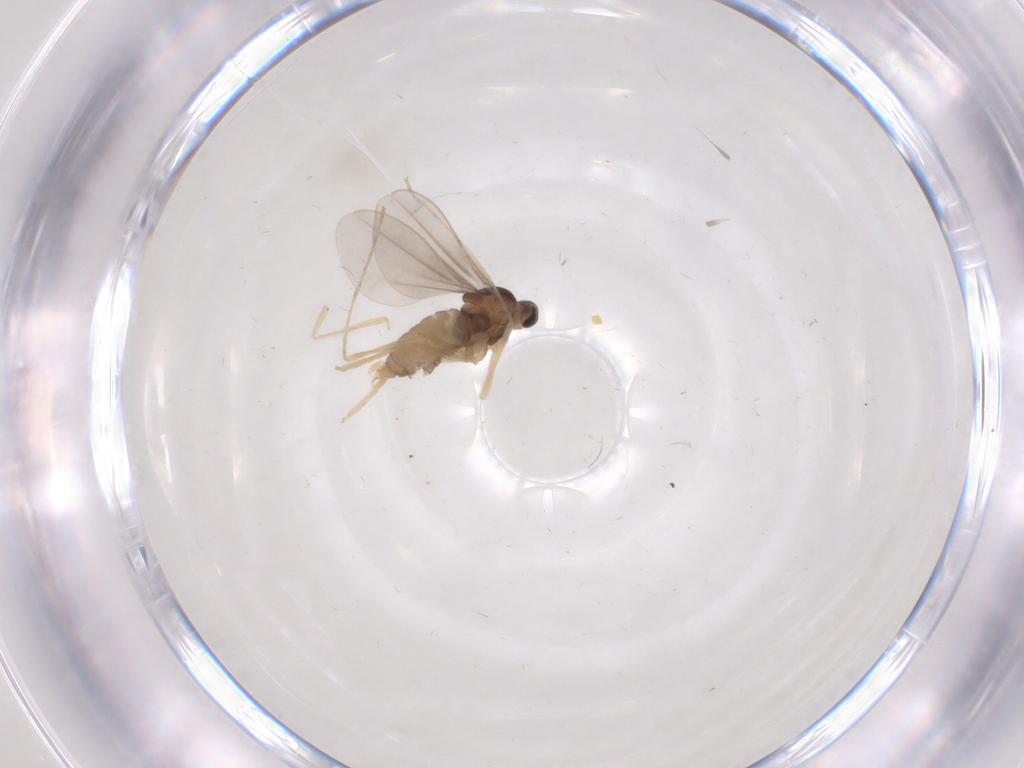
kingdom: Animalia
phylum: Arthropoda
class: Insecta
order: Diptera
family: Cecidomyiidae
